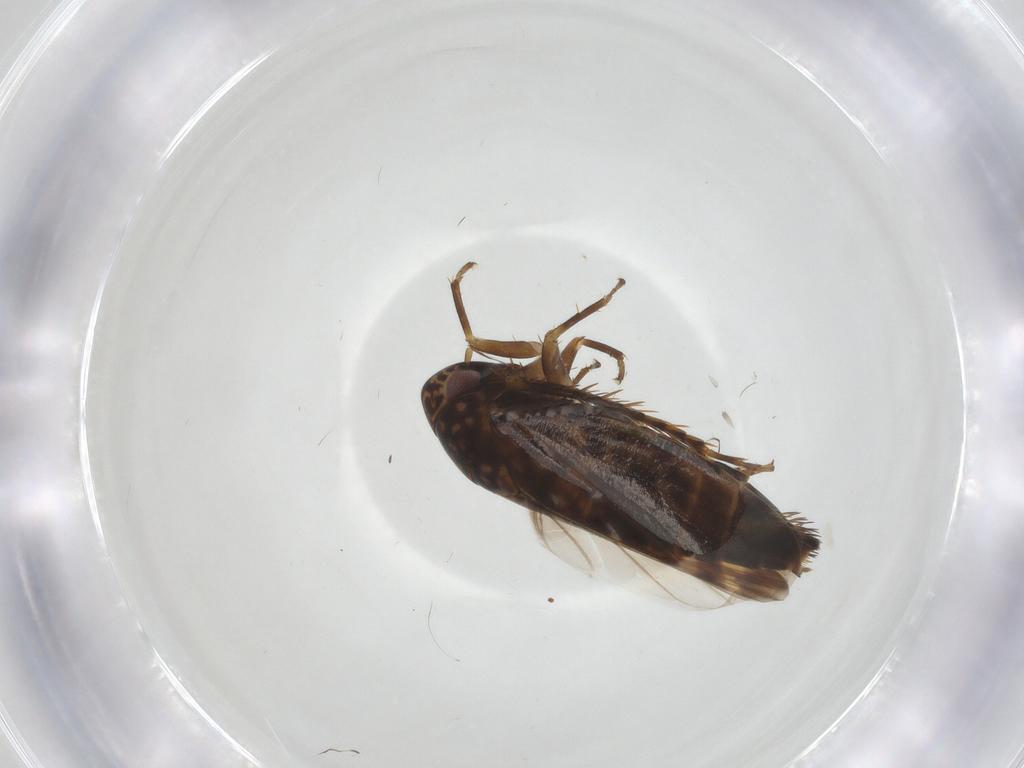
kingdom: Animalia
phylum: Arthropoda
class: Insecta
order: Hemiptera
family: Cicadellidae
